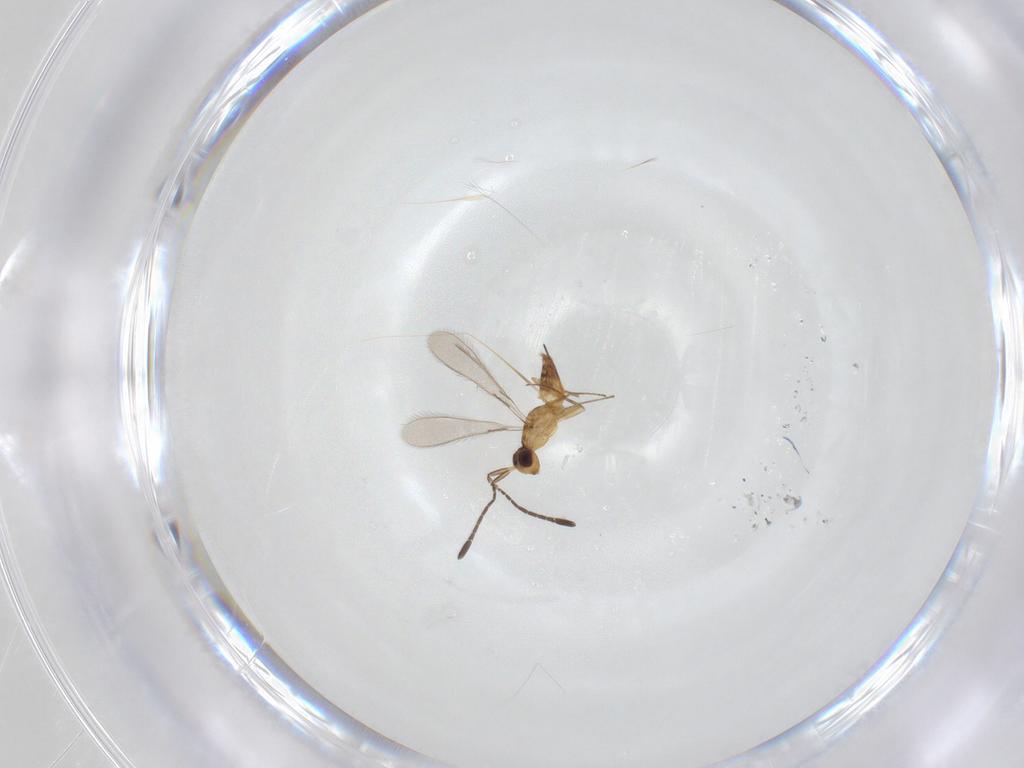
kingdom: Animalia
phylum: Arthropoda
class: Insecta
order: Hymenoptera
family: Mymaridae
